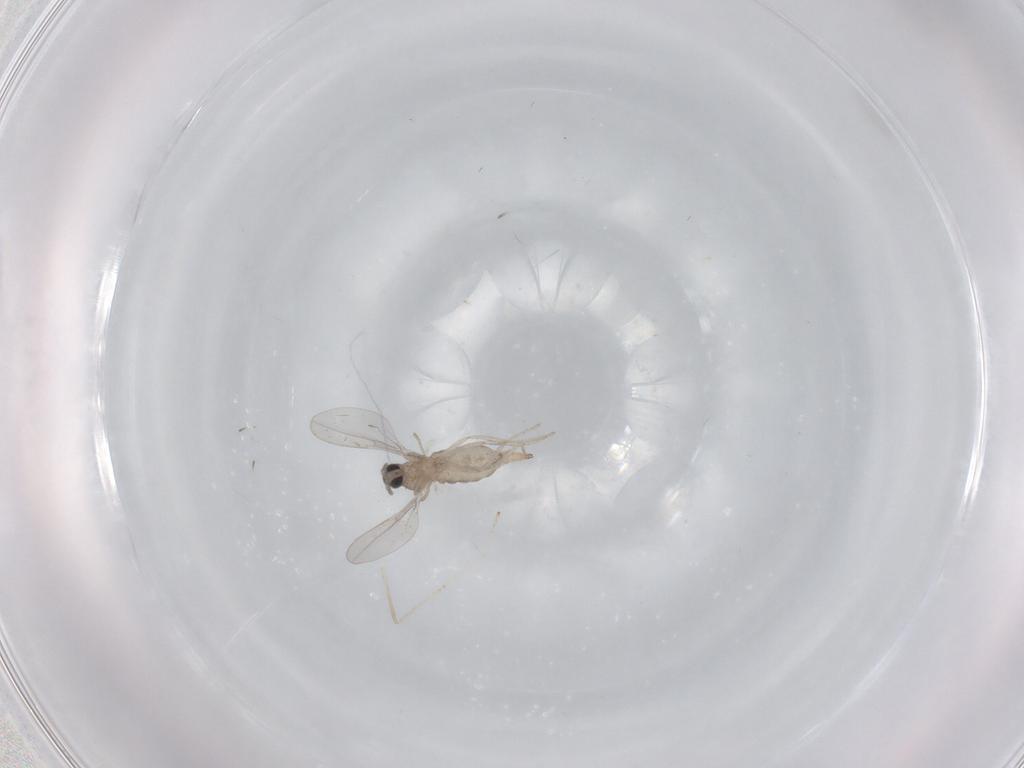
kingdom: Animalia
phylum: Arthropoda
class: Insecta
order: Diptera
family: Cecidomyiidae
